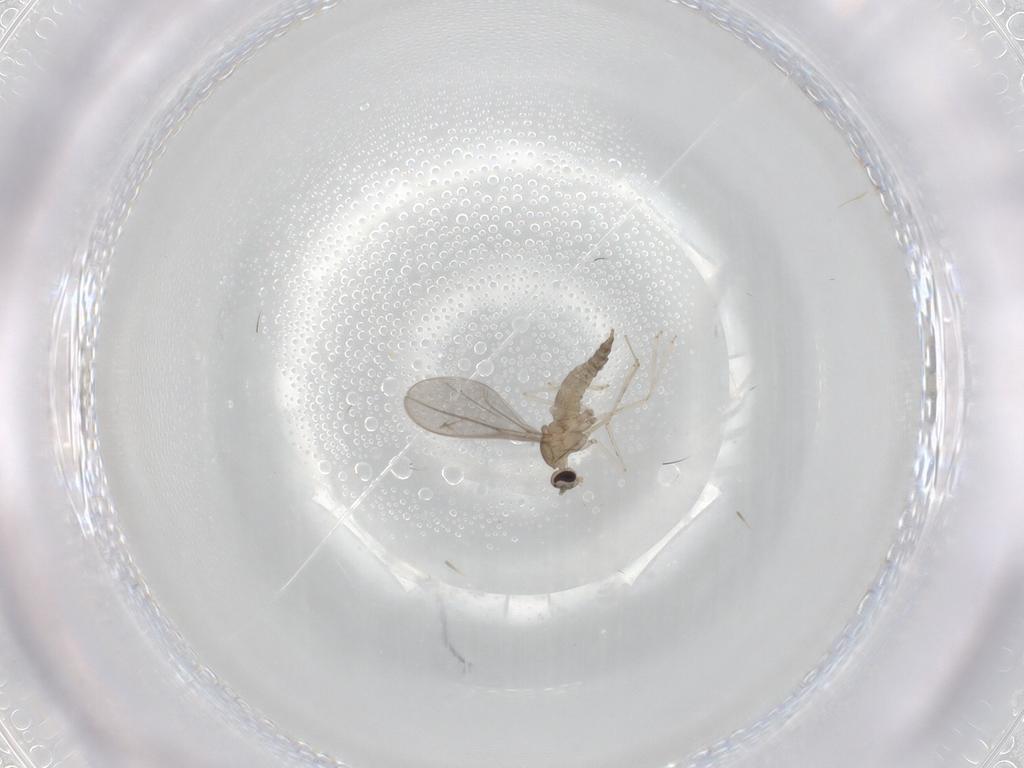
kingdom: Animalia
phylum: Arthropoda
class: Insecta
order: Diptera
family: Cecidomyiidae
